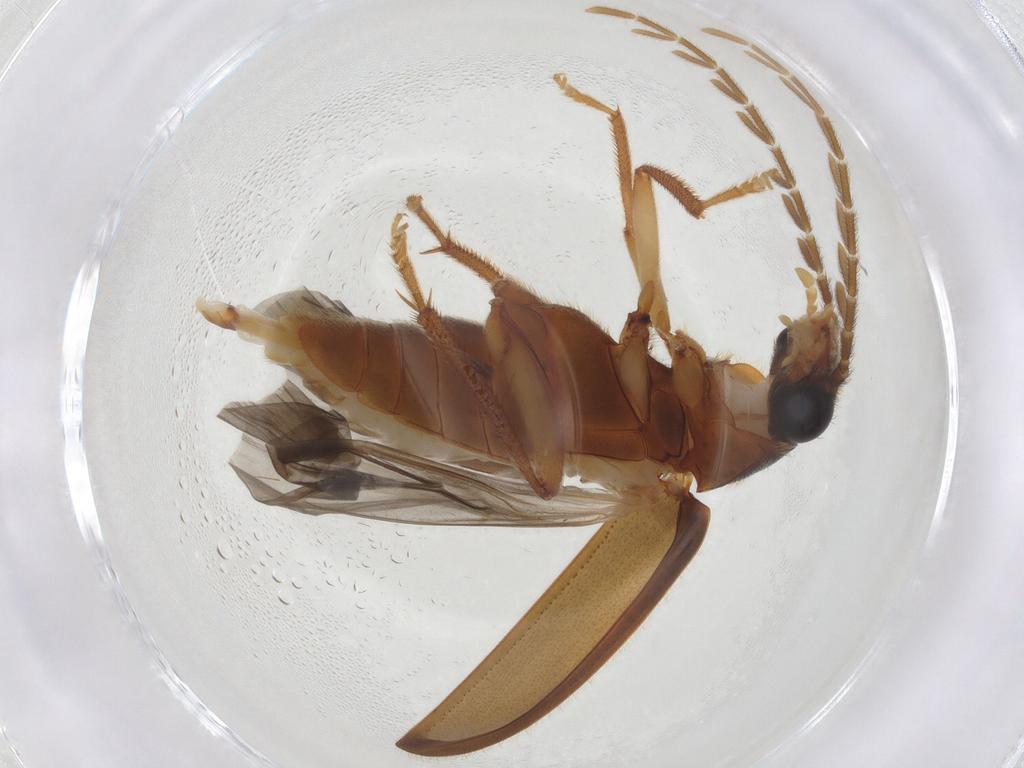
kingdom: Animalia
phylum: Arthropoda
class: Insecta
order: Coleoptera
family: Ptilodactylidae
